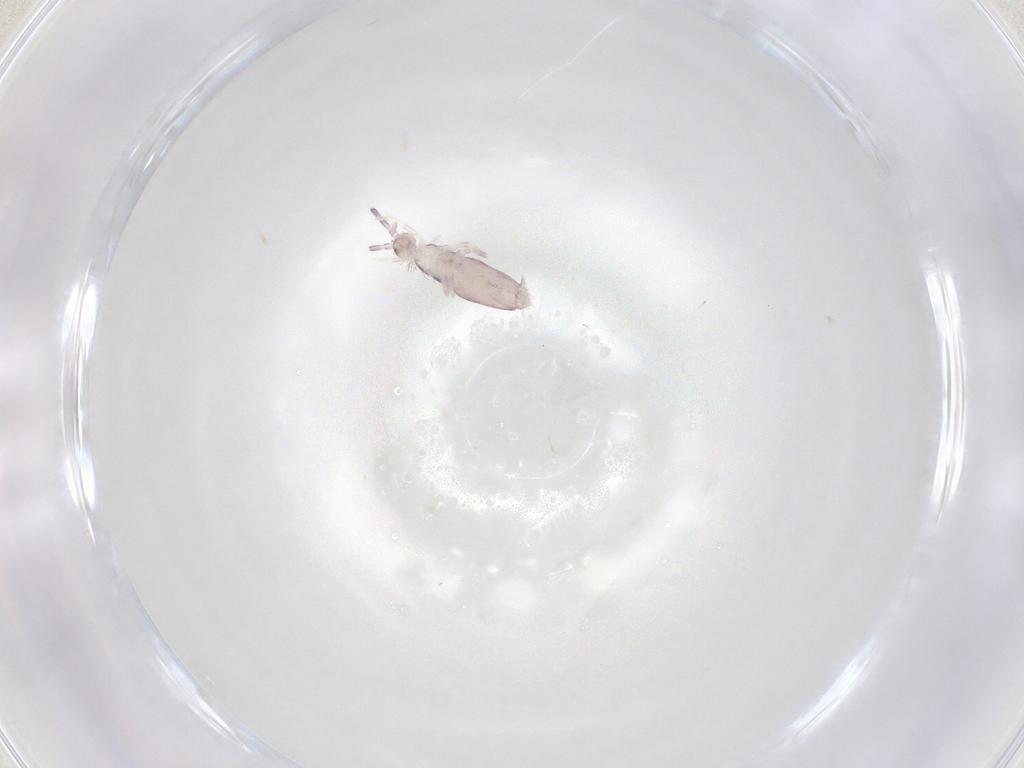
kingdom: Animalia
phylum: Arthropoda
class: Collembola
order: Poduromorpha
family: Hypogastruridae
